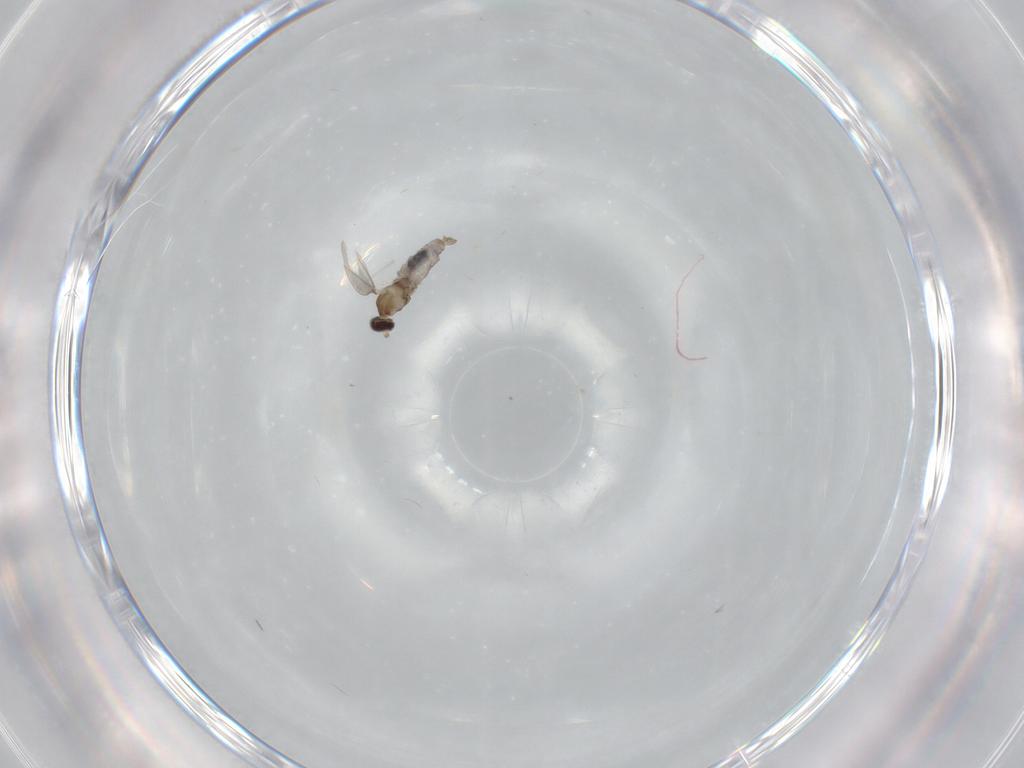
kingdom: Animalia
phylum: Arthropoda
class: Insecta
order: Diptera
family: Cecidomyiidae
